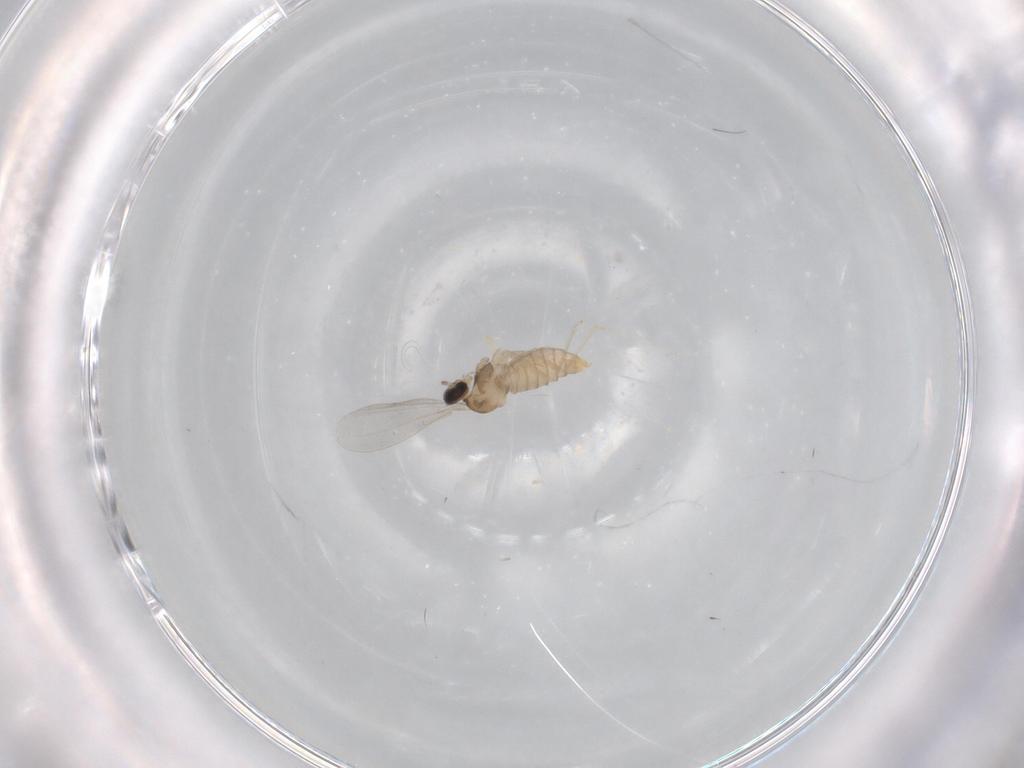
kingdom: Animalia
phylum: Arthropoda
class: Insecta
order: Diptera
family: Cecidomyiidae
